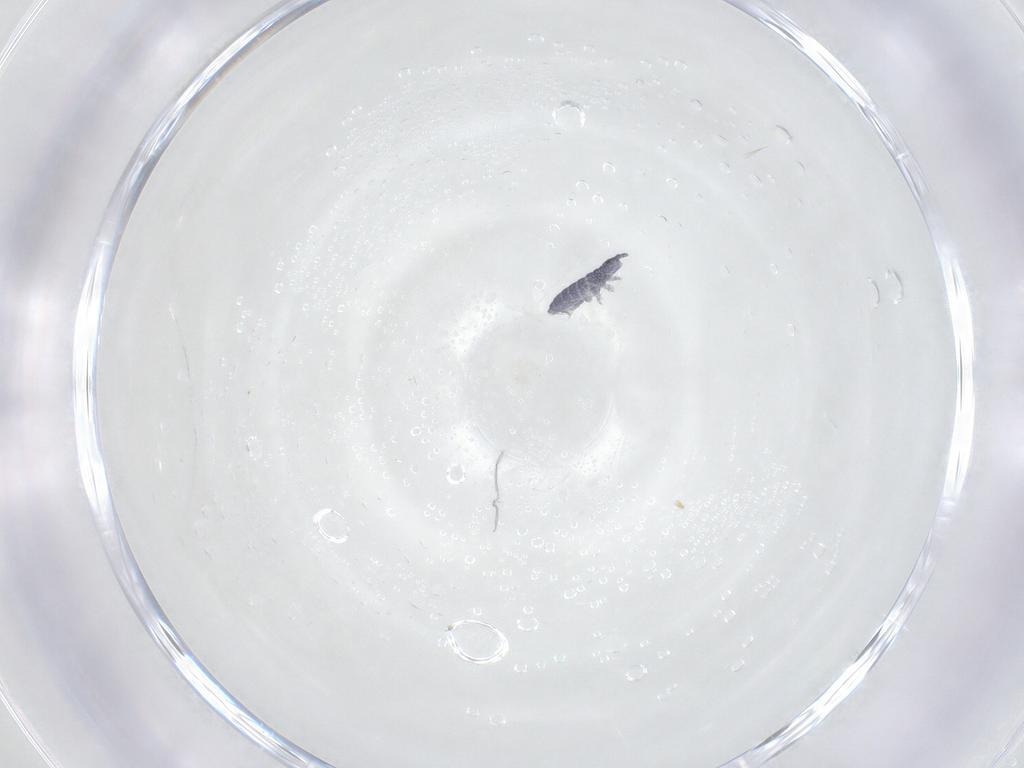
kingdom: Animalia
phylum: Arthropoda
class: Collembola
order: Poduromorpha
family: Hypogastruridae
